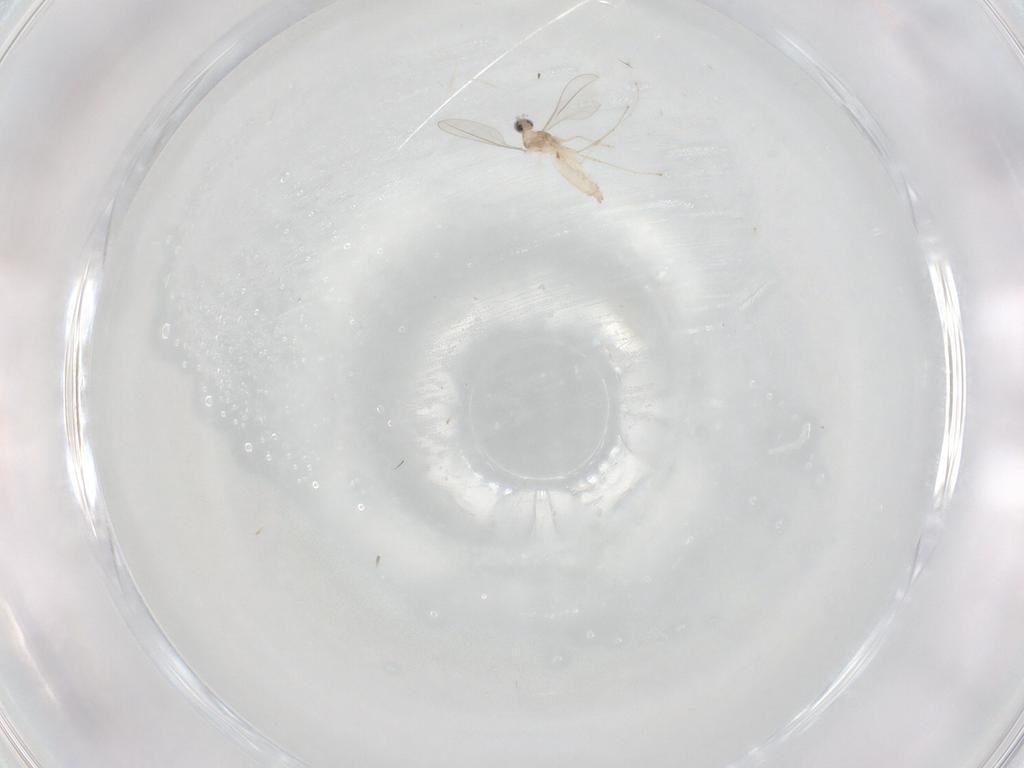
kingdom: Animalia
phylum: Arthropoda
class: Insecta
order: Diptera
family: Cecidomyiidae
